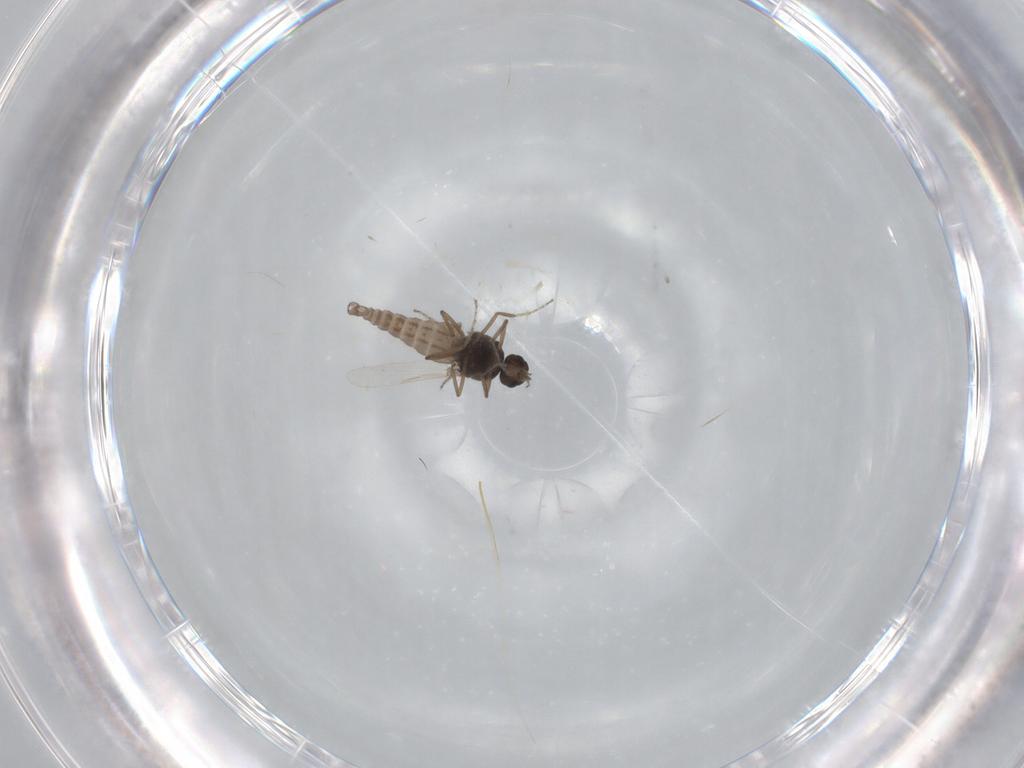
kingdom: Animalia
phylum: Arthropoda
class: Insecta
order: Diptera
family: Ceratopogonidae
